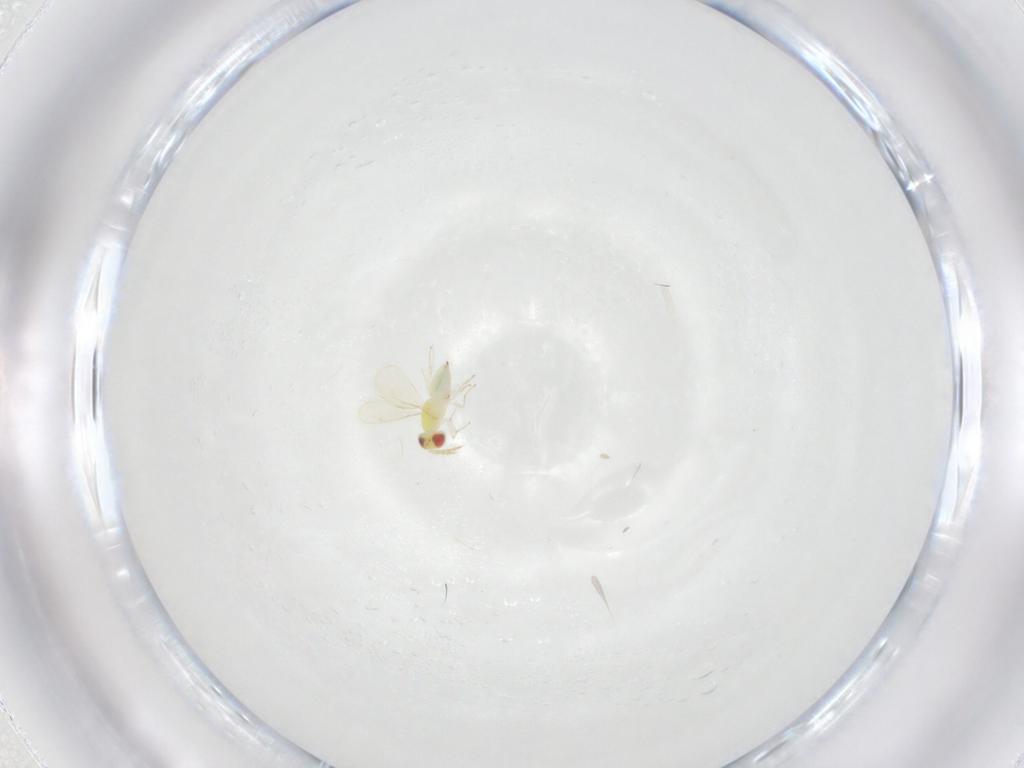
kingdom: Animalia
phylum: Arthropoda
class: Insecta
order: Hymenoptera
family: Eulophidae
